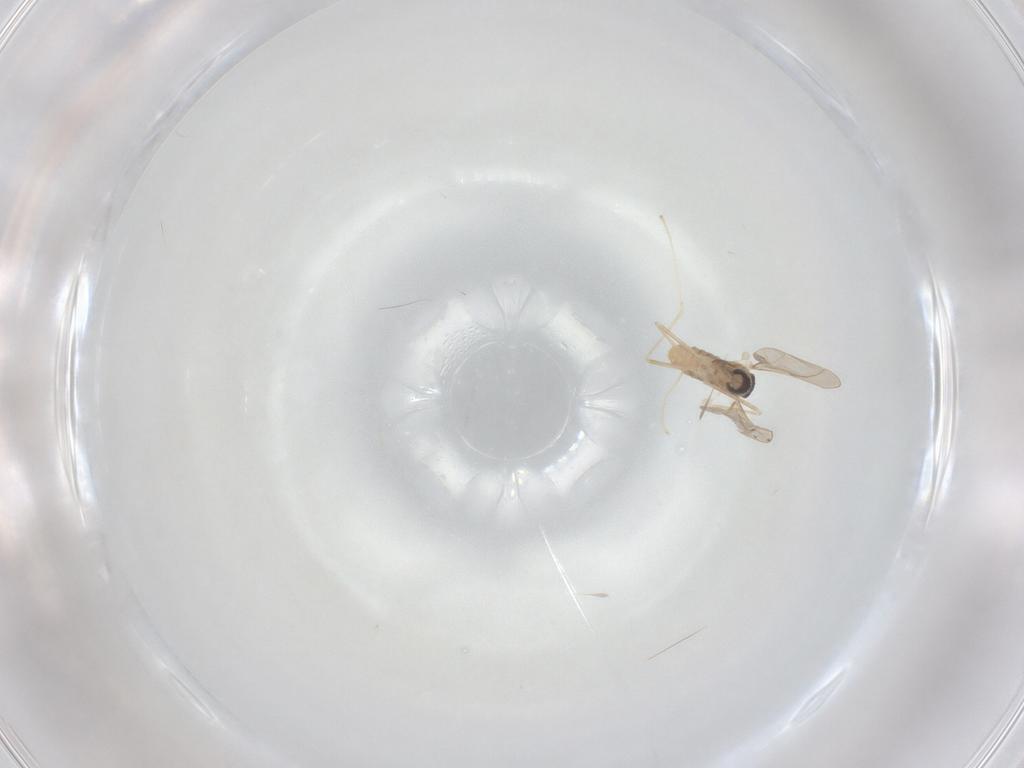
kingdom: Animalia
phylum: Arthropoda
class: Insecta
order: Diptera
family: Cecidomyiidae
